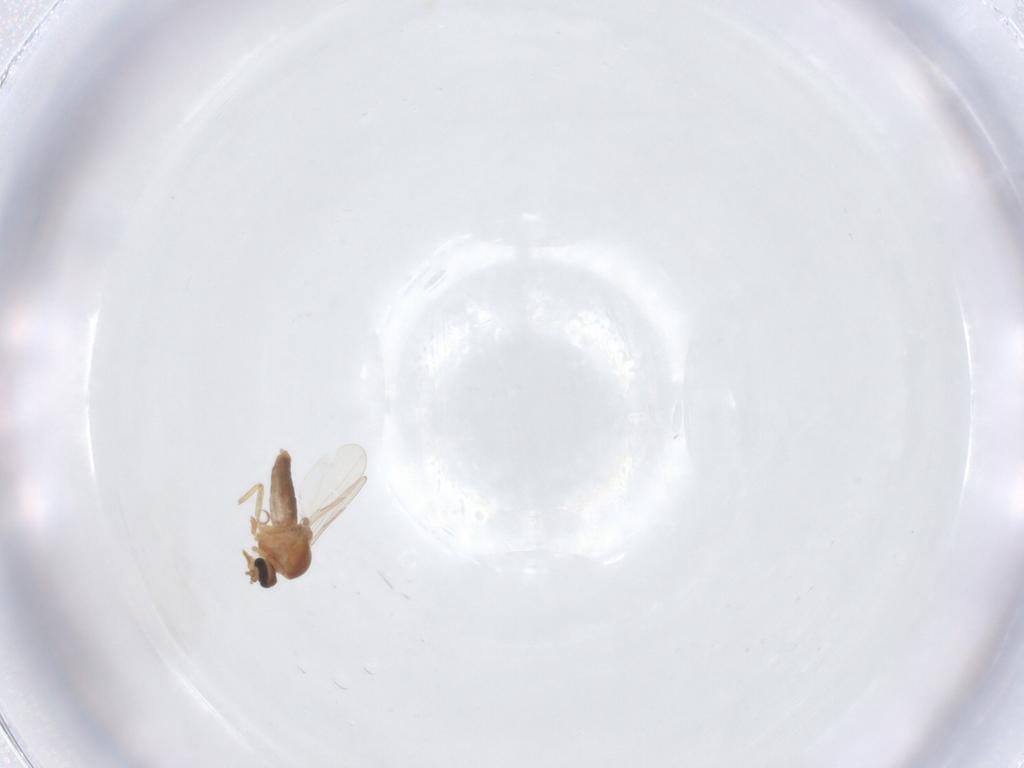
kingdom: Animalia
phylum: Arthropoda
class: Insecta
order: Diptera
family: Ceratopogonidae
